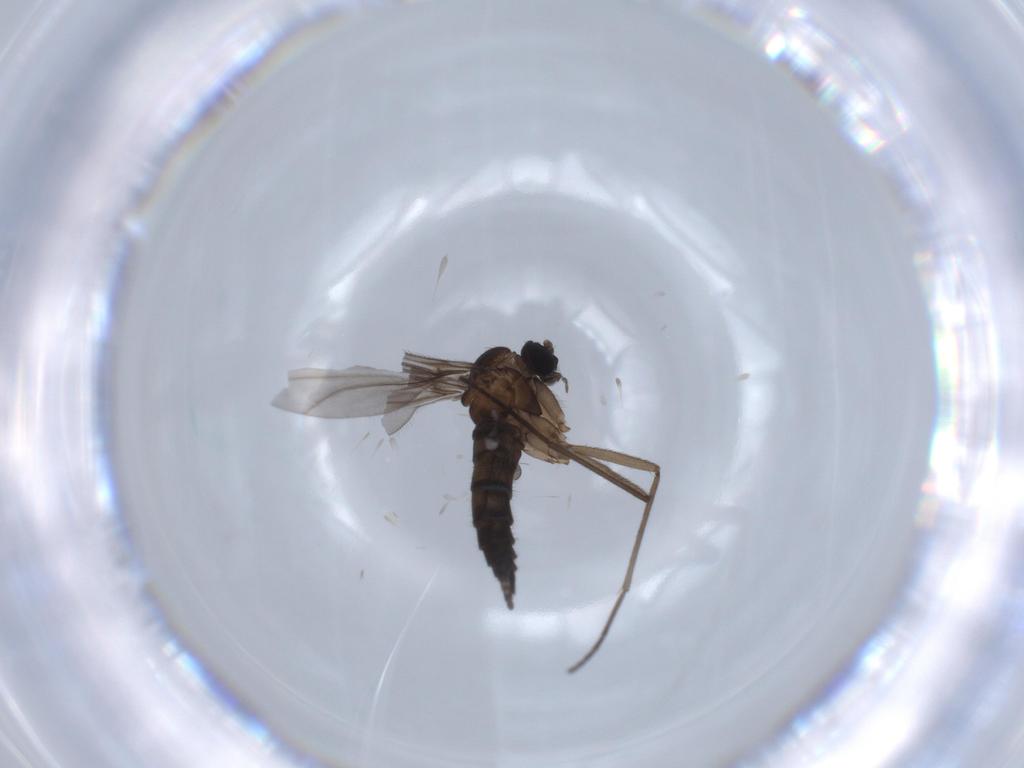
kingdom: Animalia
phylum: Arthropoda
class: Insecta
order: Diptera
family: Sciaridae
